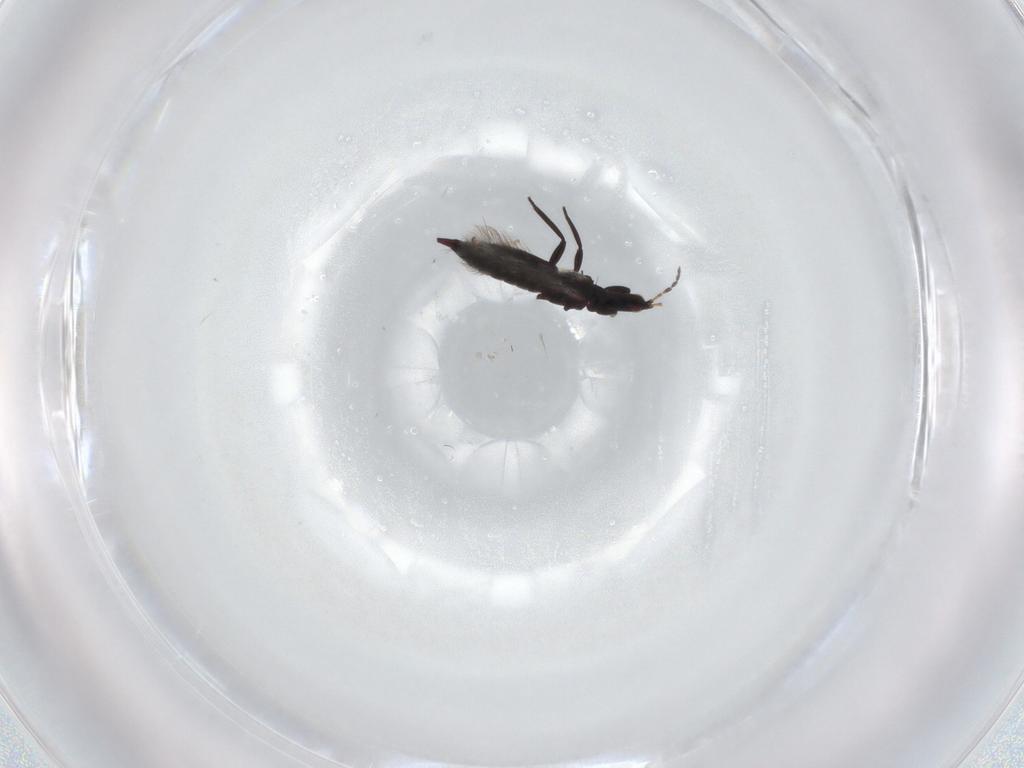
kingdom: Animalia
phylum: Arthropoda
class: Insecta
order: Thysanoptera
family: Phlaeothripidae
